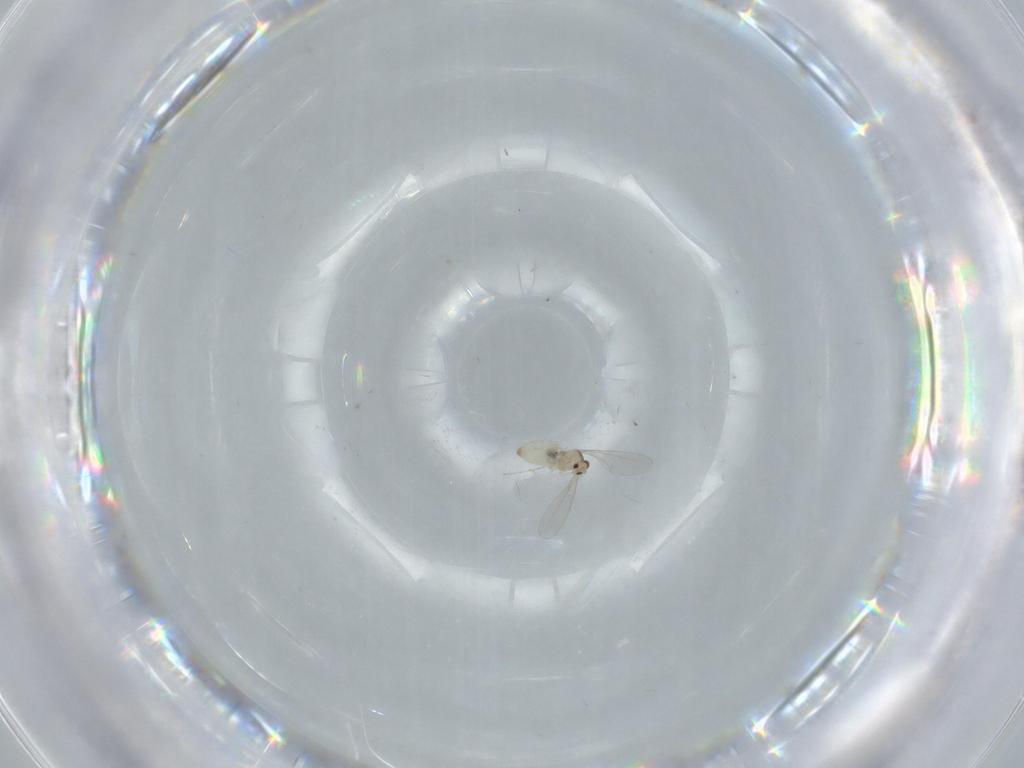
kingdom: Animalia
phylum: Arthropoda
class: Insecta
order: Diptera
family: Cecidomyiidae
